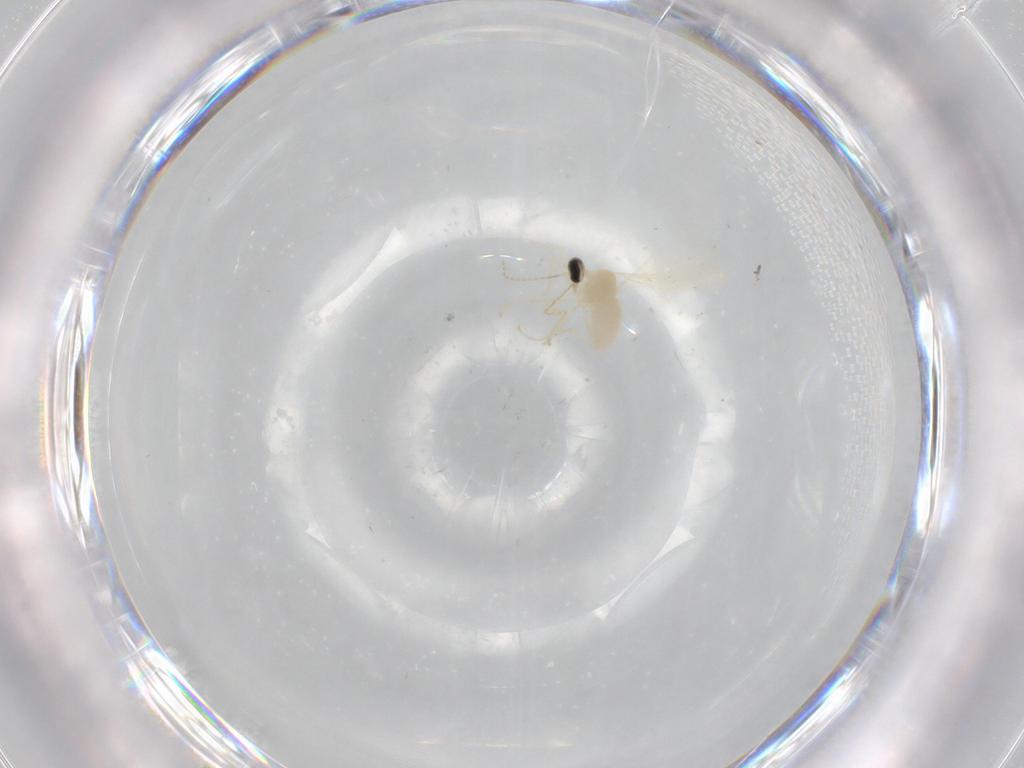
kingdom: Animalia
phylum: Arthropoda
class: Insecta
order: Diptera
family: Cecidomyiidae
